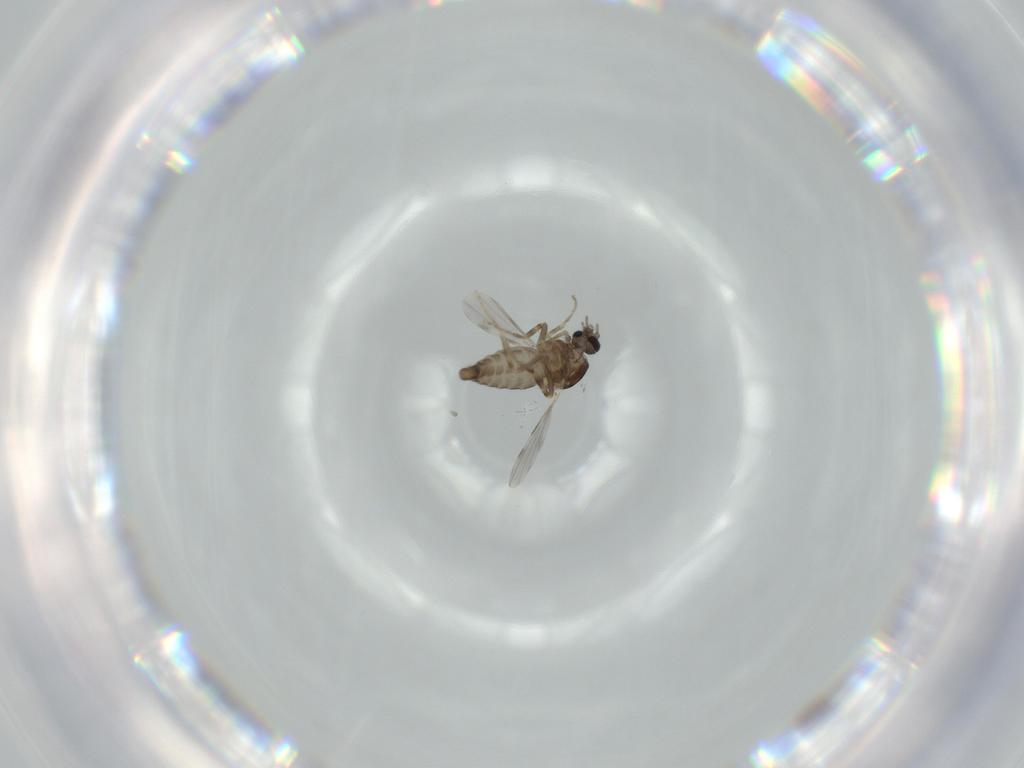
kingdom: Animalia
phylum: Arthropoda
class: Insecta
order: Diptera
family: Ceratopogonidae
